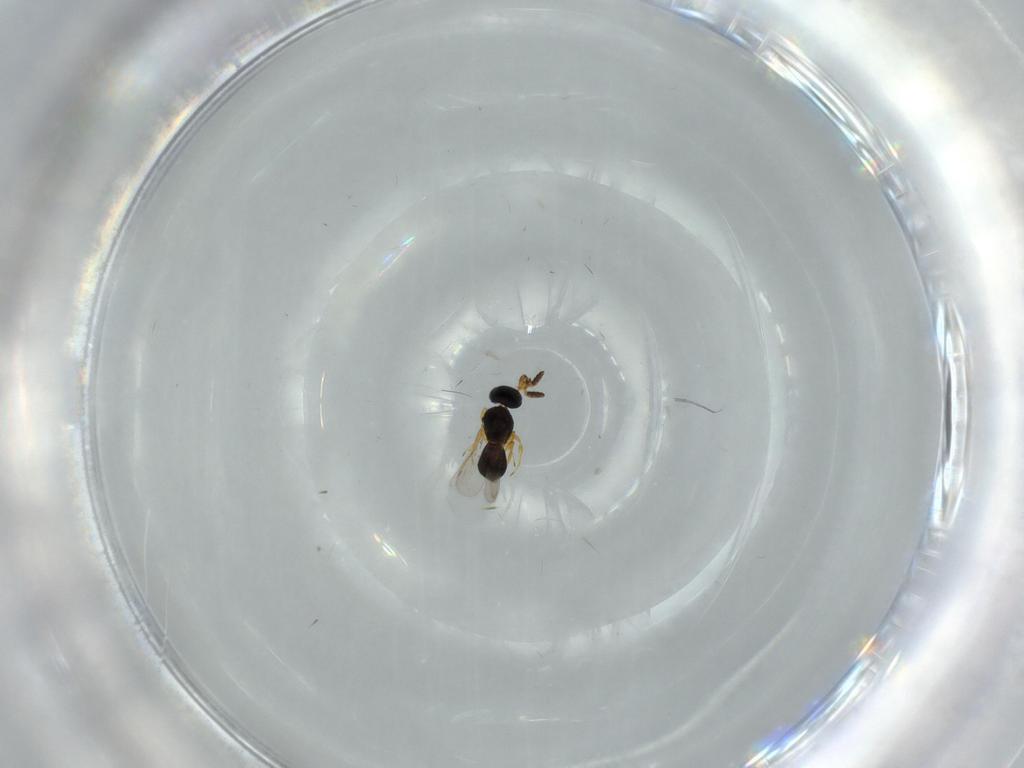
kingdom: Animalia
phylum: Arthropoda
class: Insecta
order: Hymenoptera
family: Scelionidae
